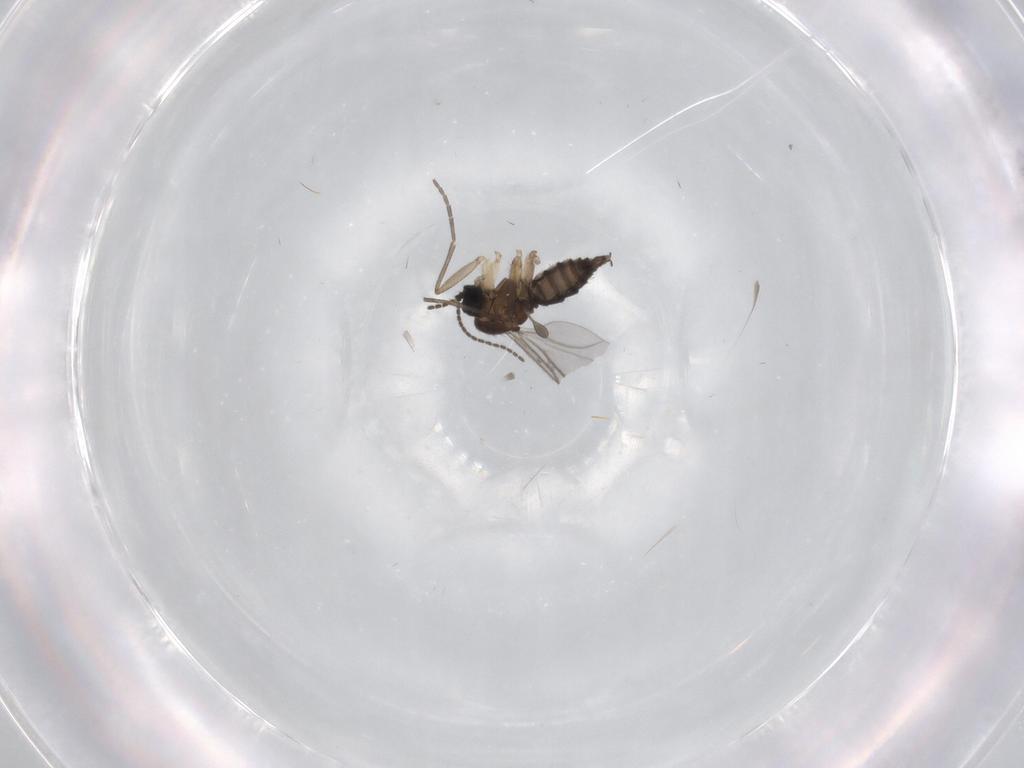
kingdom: Animalia
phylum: Arthropoda
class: Insecta
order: Diptera
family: Sciaridae
